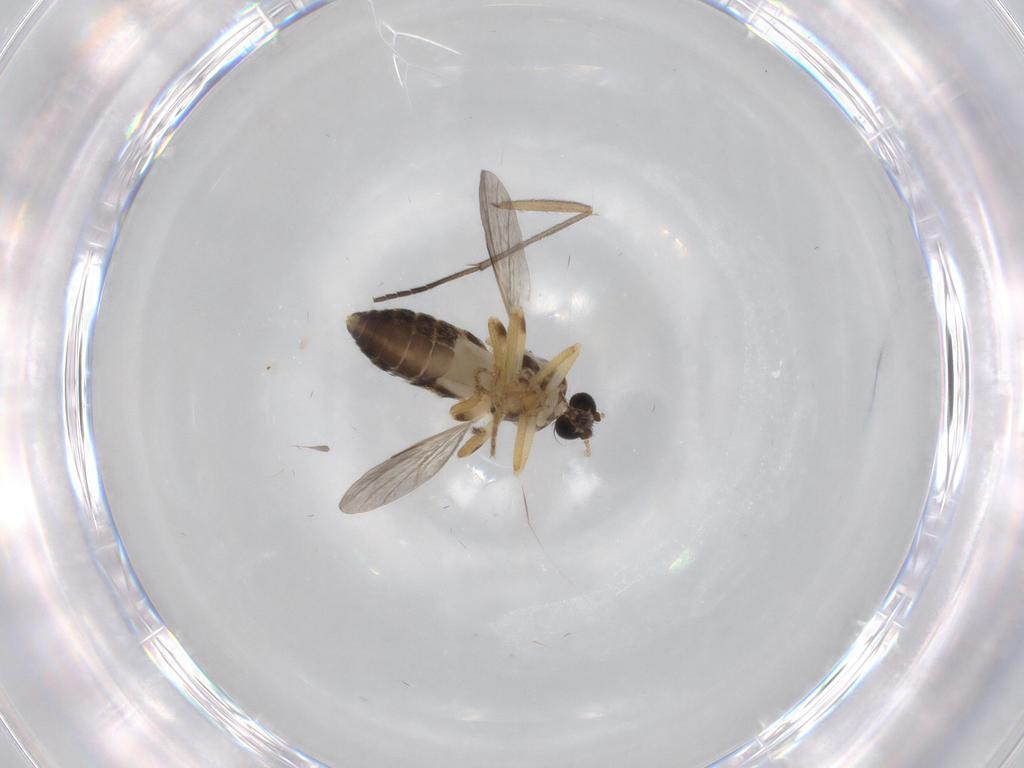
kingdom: Animalia
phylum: Arthropoda
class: Insecta
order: Diptera
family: Ceratopogonidae
